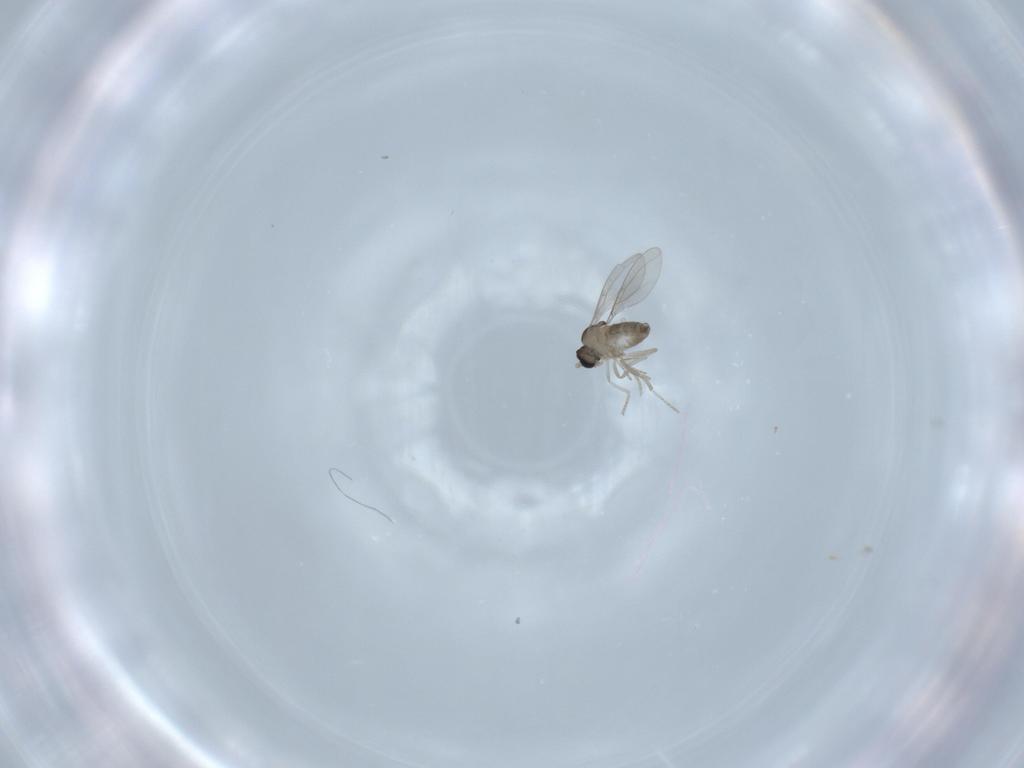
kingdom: Animalia
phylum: Arthropoda
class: Insecta
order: Diptera
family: Cecidomyiidae
